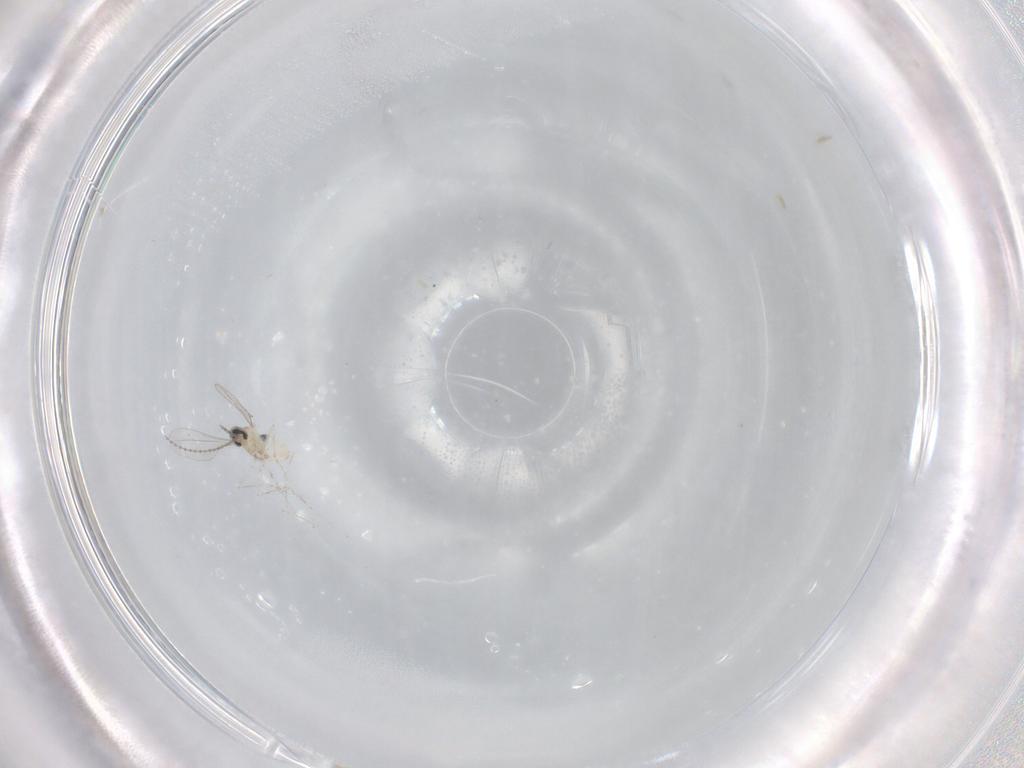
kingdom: Animalia
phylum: Arthropoda
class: Insecta
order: Diptera
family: Cecidomyiidae
